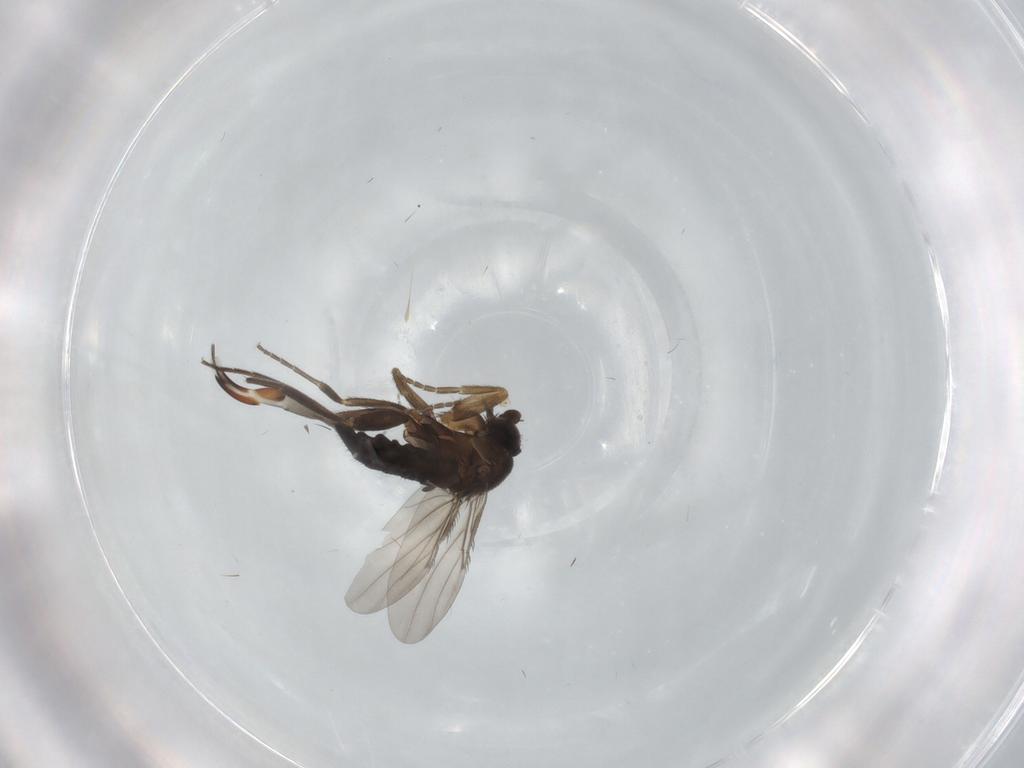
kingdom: Animalia
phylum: Arthropoda
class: Insecta
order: Diptera
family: Phoridae
